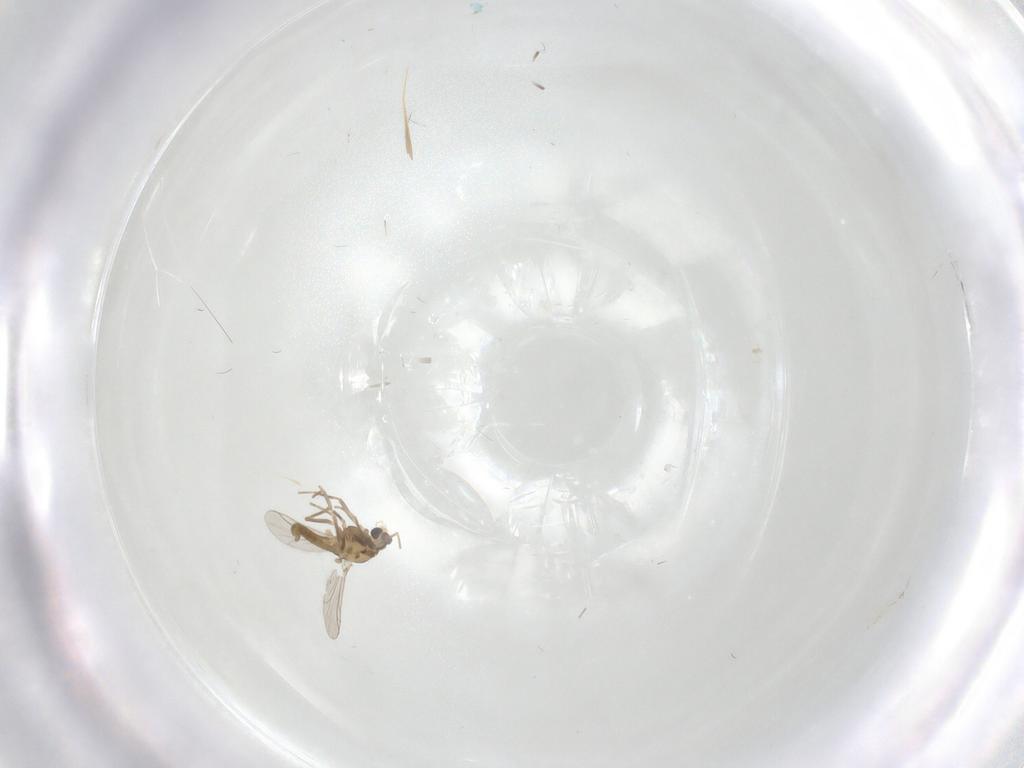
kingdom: Animalia
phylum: Arthropoda
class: Insecta
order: Diptera
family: Chironomidae
